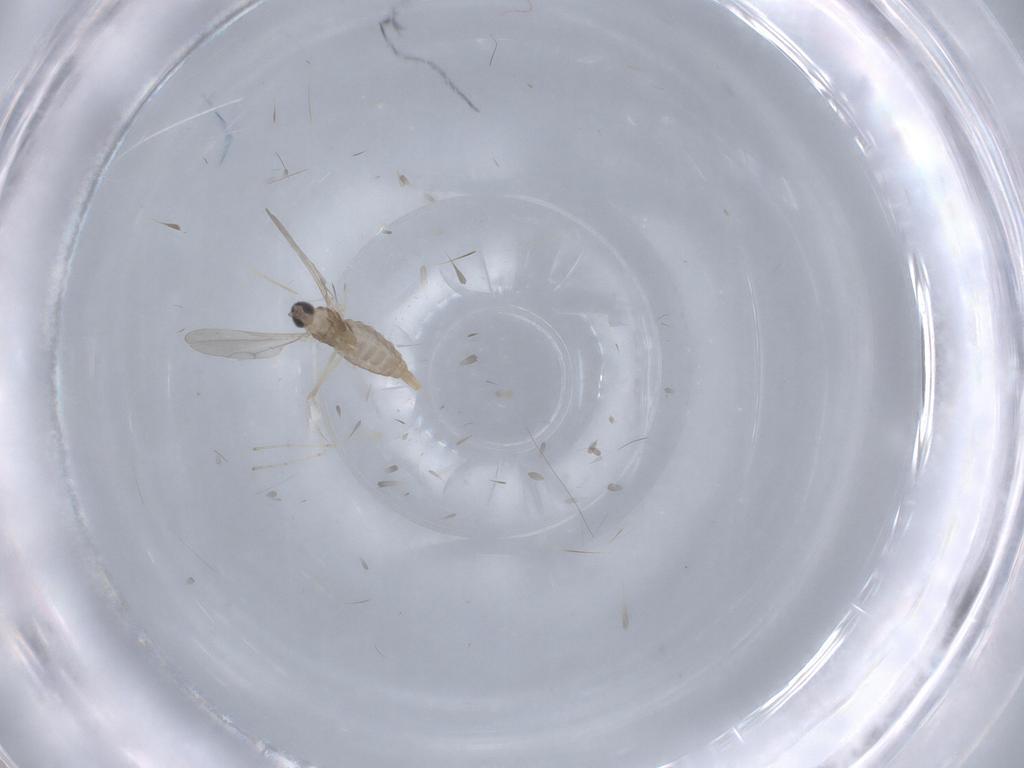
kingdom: Animalia
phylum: Arthropoda
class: Insecta
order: Diptera
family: Cecidomyiidae
